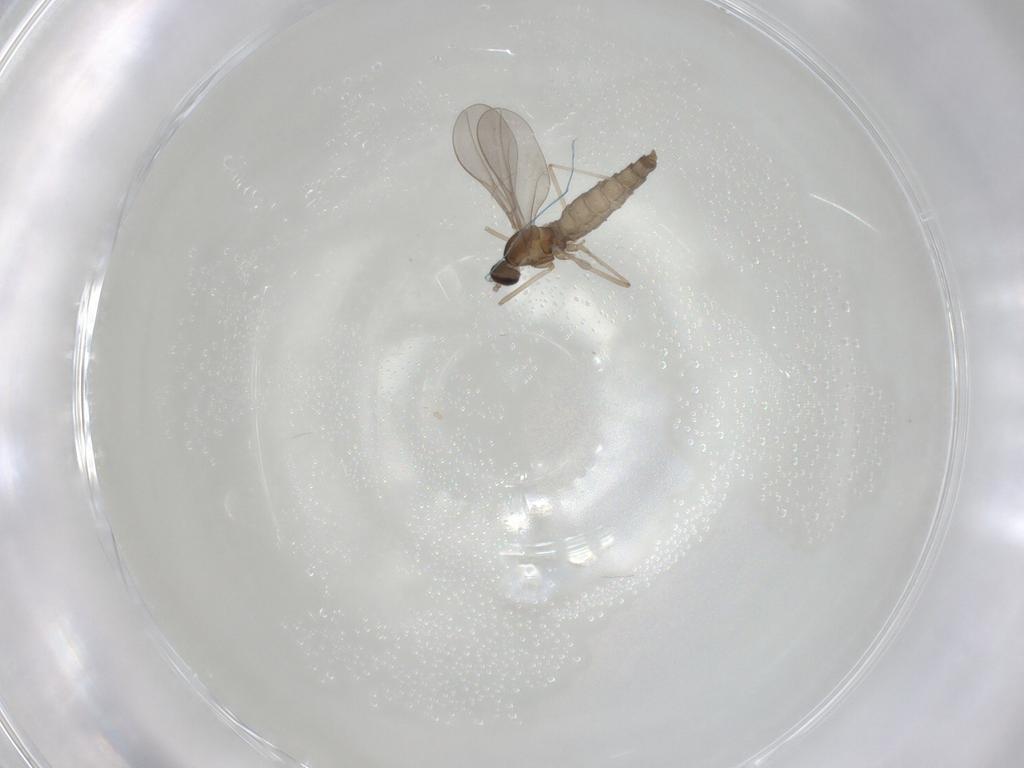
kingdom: Animalia
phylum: Arthropoda
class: Insecta
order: Diptera
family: Cecidomyiidae
